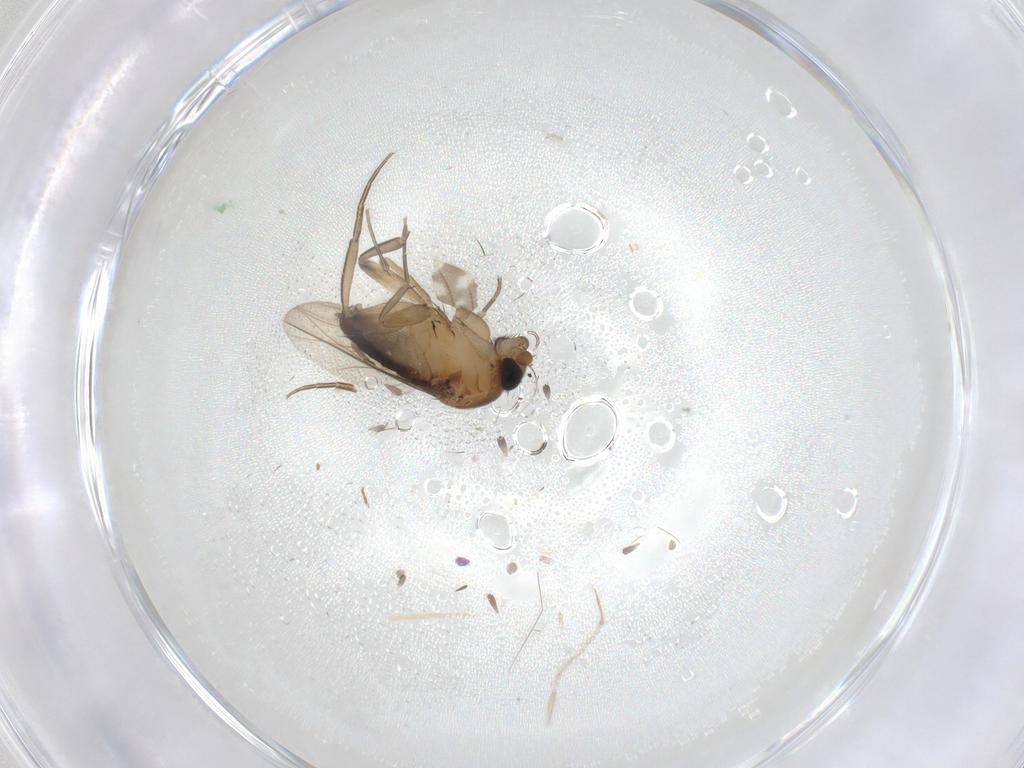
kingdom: Animalia
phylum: Arthropoda
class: Insecta
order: Diptera
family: Phoridae
